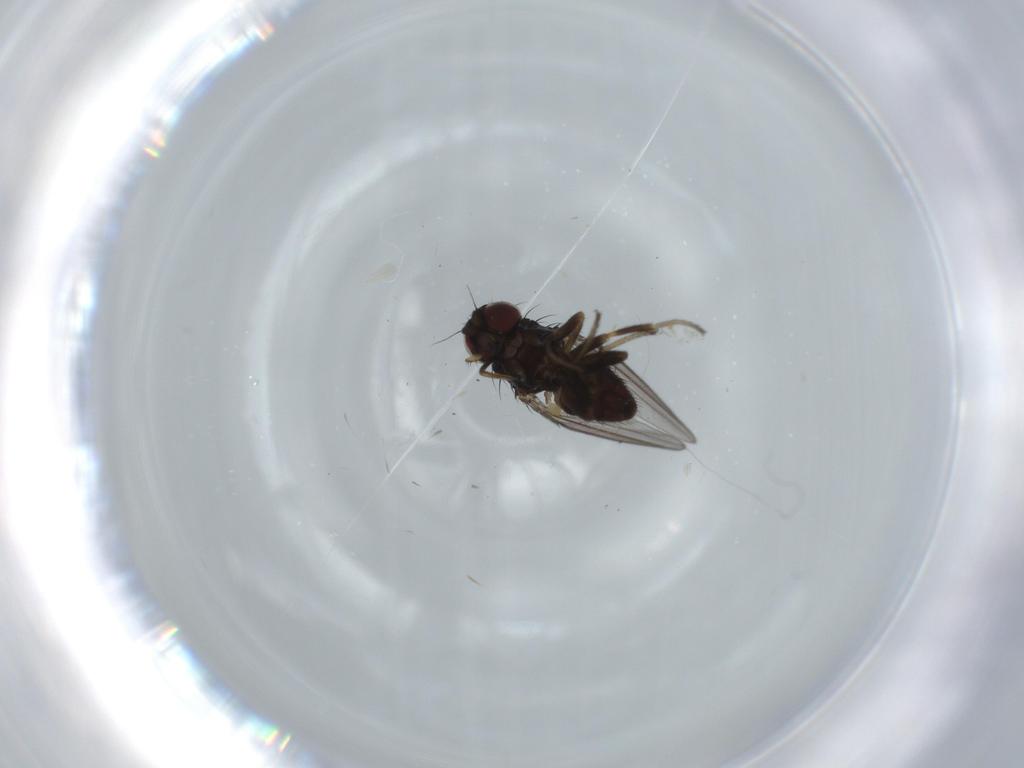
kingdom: Animalia
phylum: Arthropoda
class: Insecta
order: Diptera
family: Milichiidae
